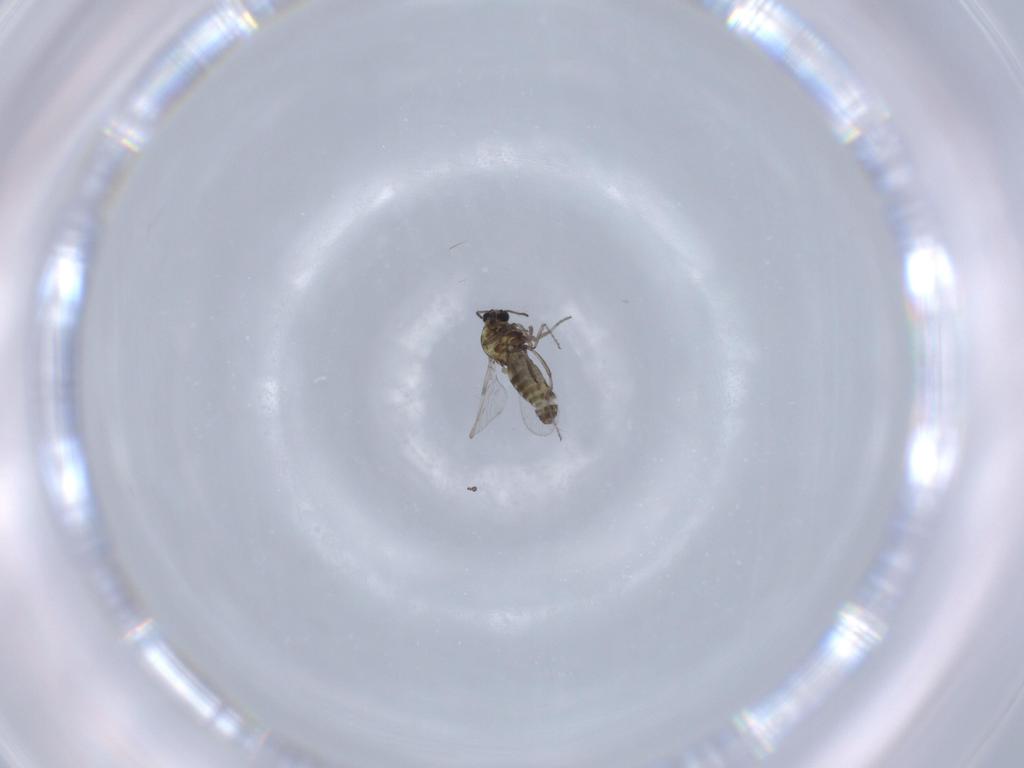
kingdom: Animalia
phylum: Arthropoda
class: Insecta
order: Diptera
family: Ceratopogonidae
